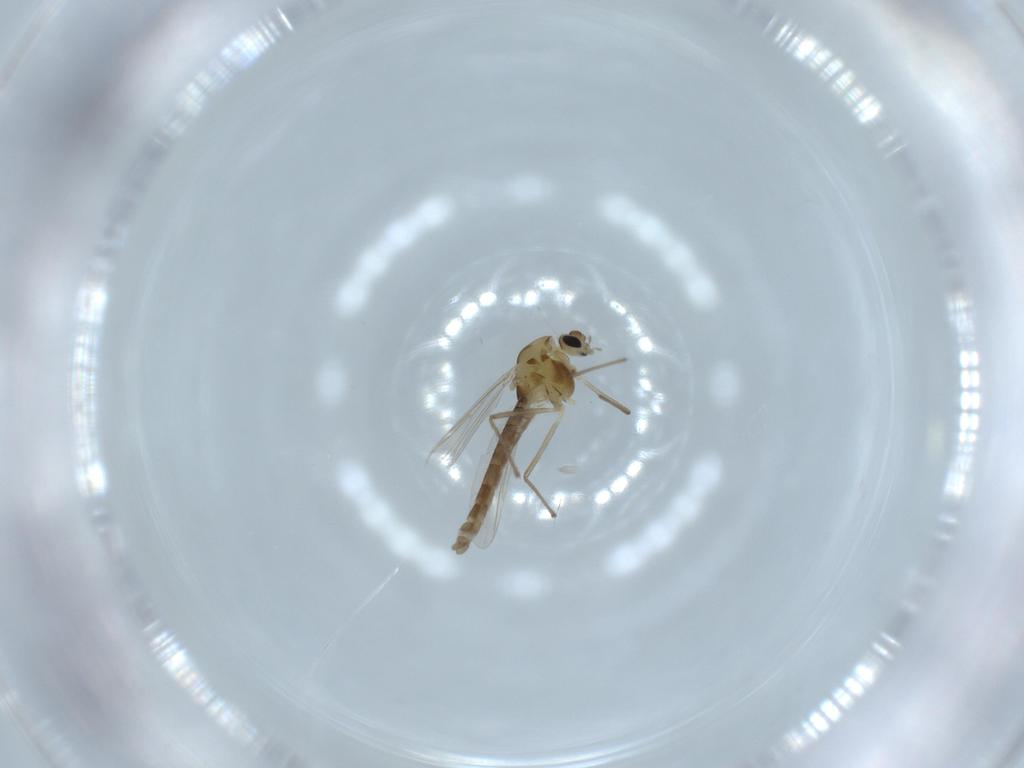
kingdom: Animalia
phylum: Arthropoda
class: Insecta
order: Diptera
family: Chironomidae
